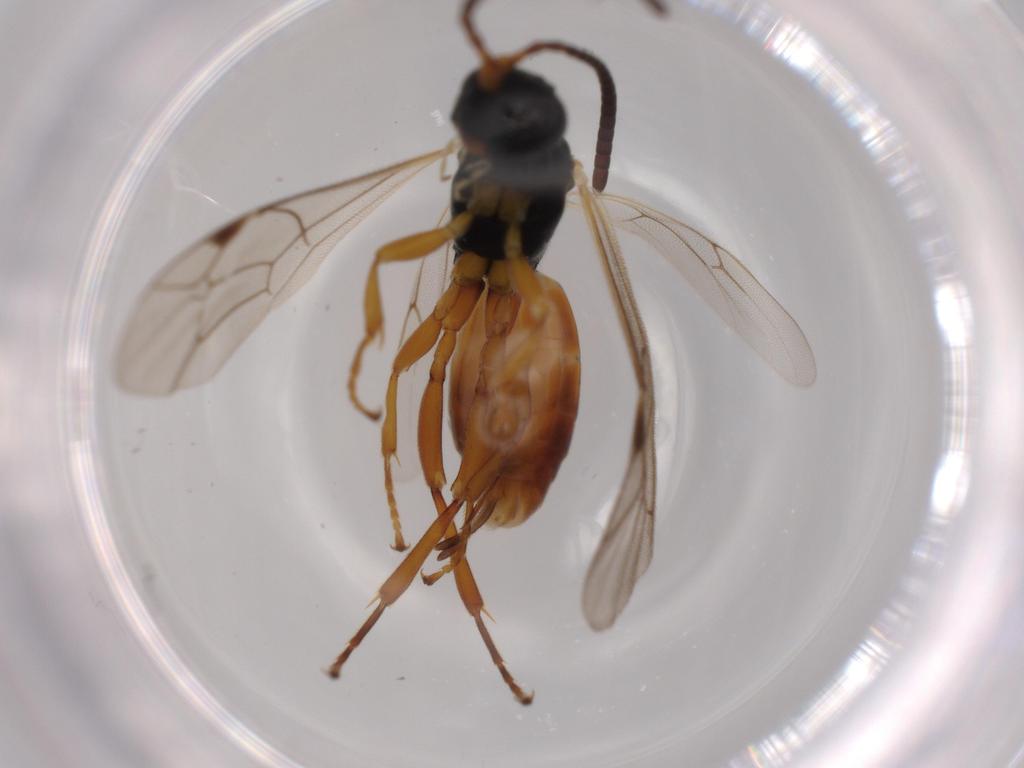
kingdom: Animalia
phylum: Arthropoda
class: Insecta
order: Hymenoptera
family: Ichneumonidae
